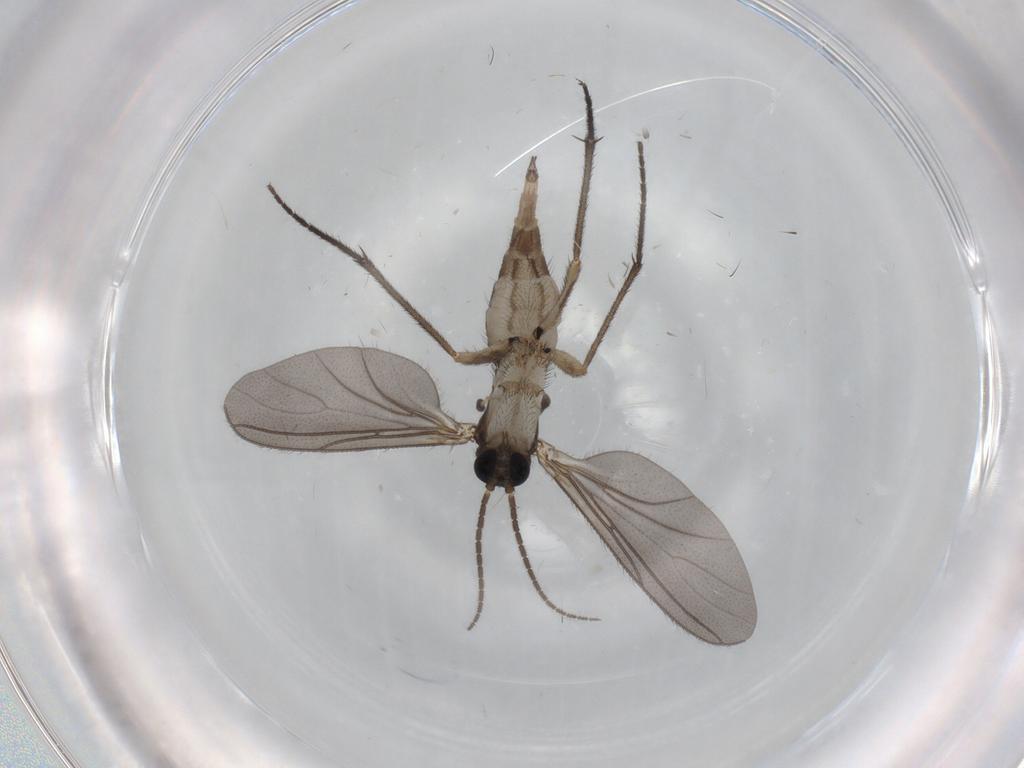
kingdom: Animalia
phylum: Arthropoda
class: Insecta
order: Diptera
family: Sciaridae
